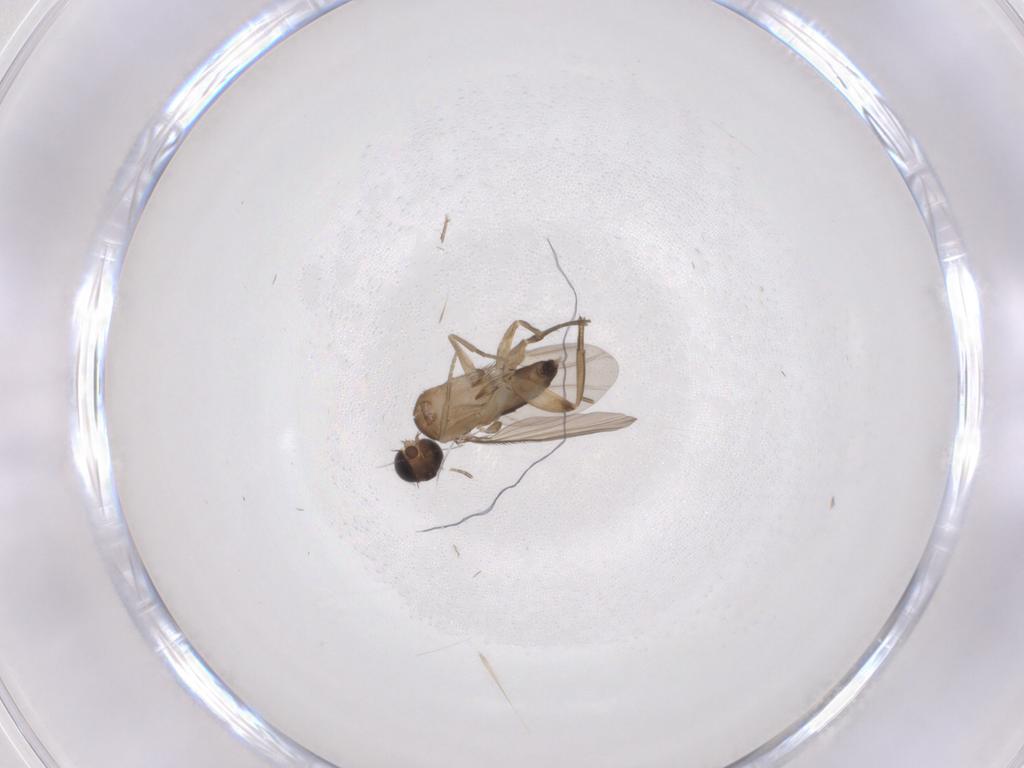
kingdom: Animalia
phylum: Arthropoda
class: Insecta
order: Diptera
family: Phoridae
